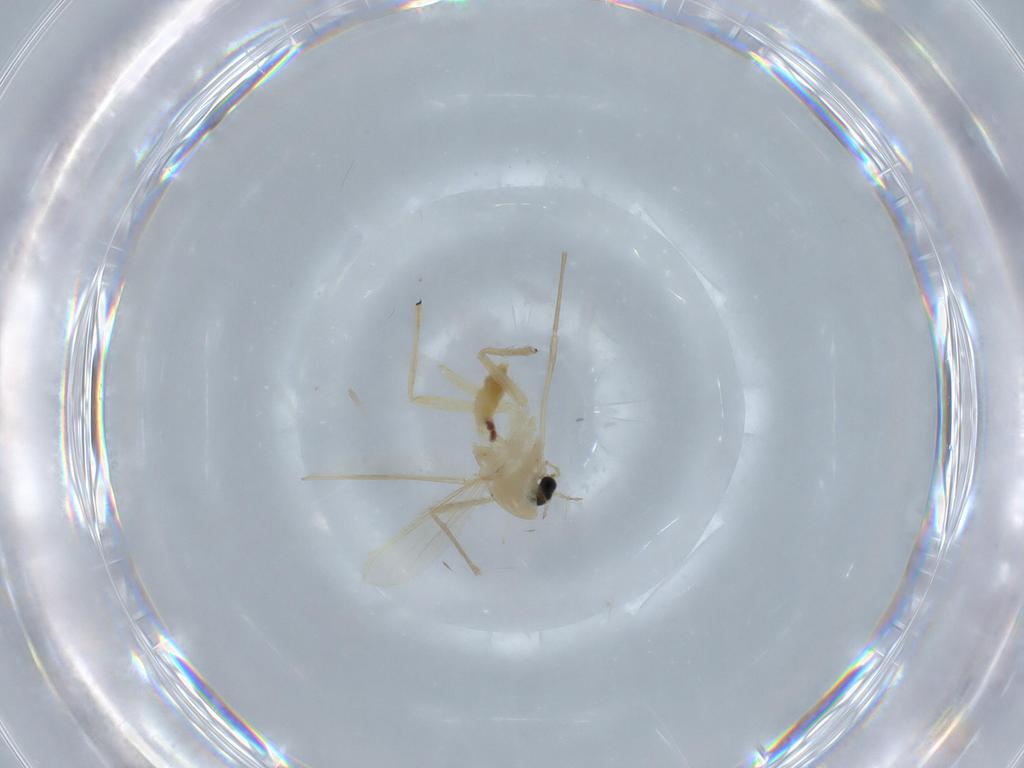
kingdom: Animalia
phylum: Arthropoda
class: Insecta
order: Diptera
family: Chironomidae
